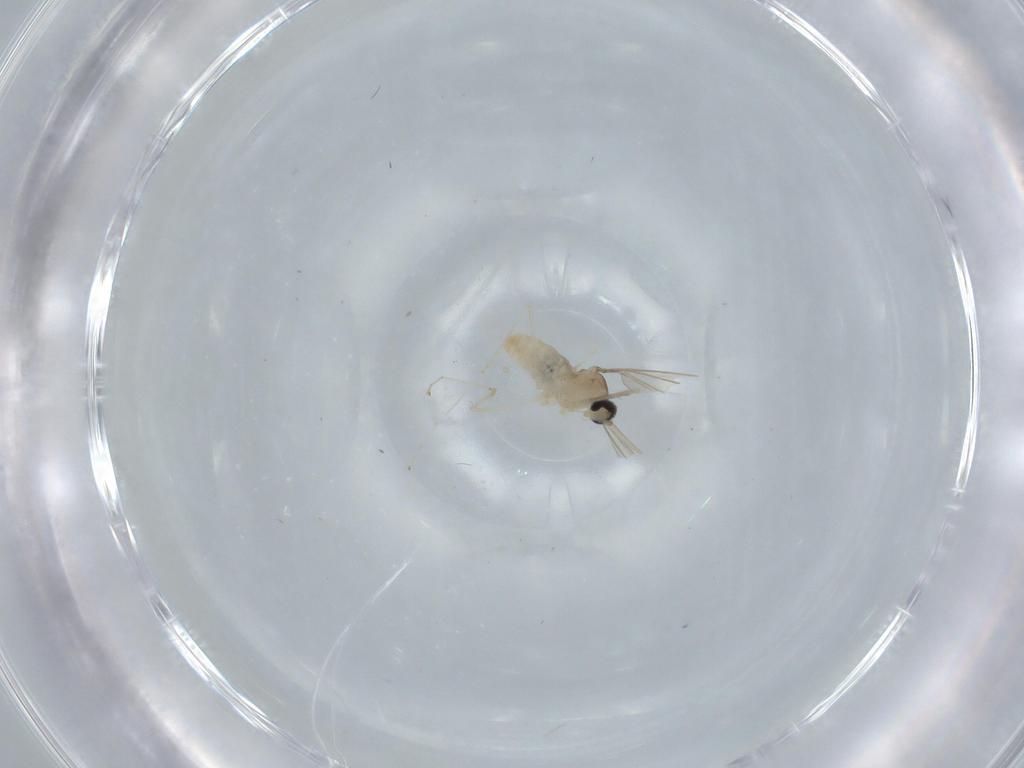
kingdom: Animalia
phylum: Arthropoda
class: Insecta
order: Diptera
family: Cecidomyiidae
